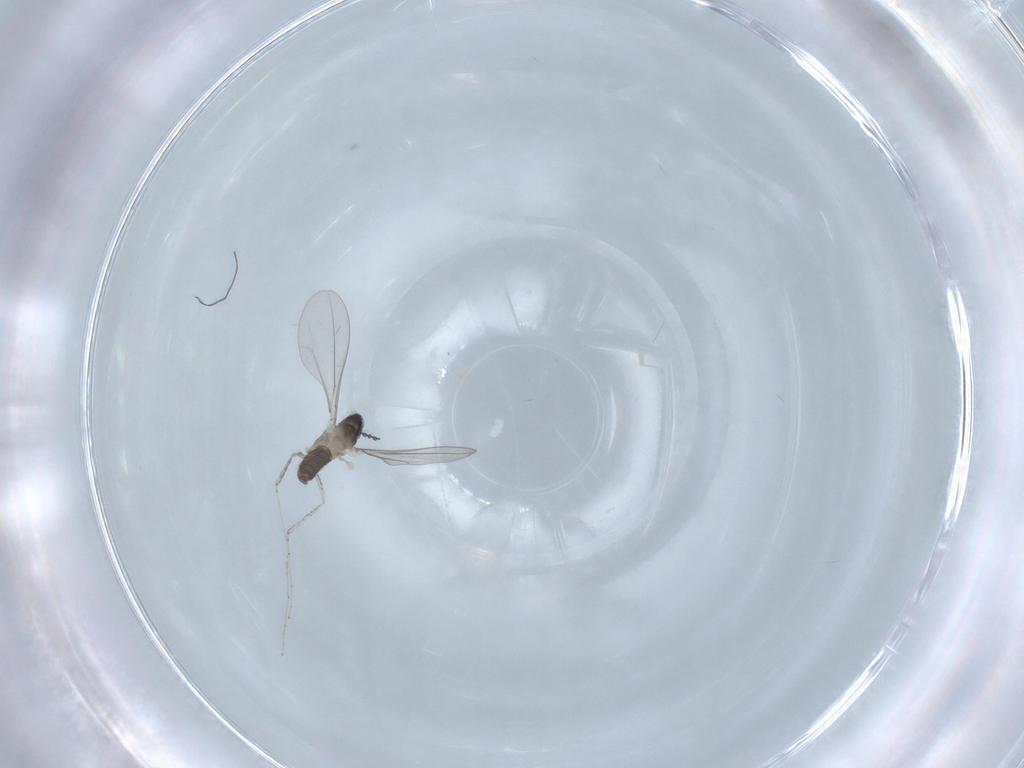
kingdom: Animalia
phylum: Arthropoda
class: Insecta
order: Diptera
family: Cecidomyiidae
